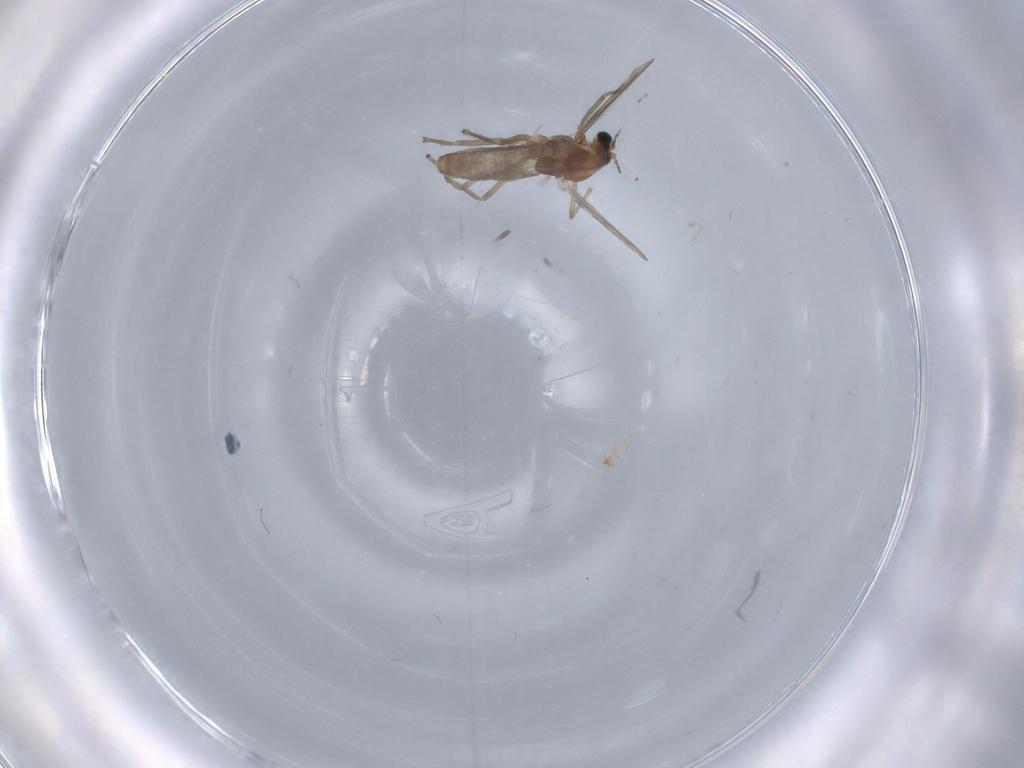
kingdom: Animalia
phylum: Arthropoda
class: Insecta
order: Diptera
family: Chironomidae
